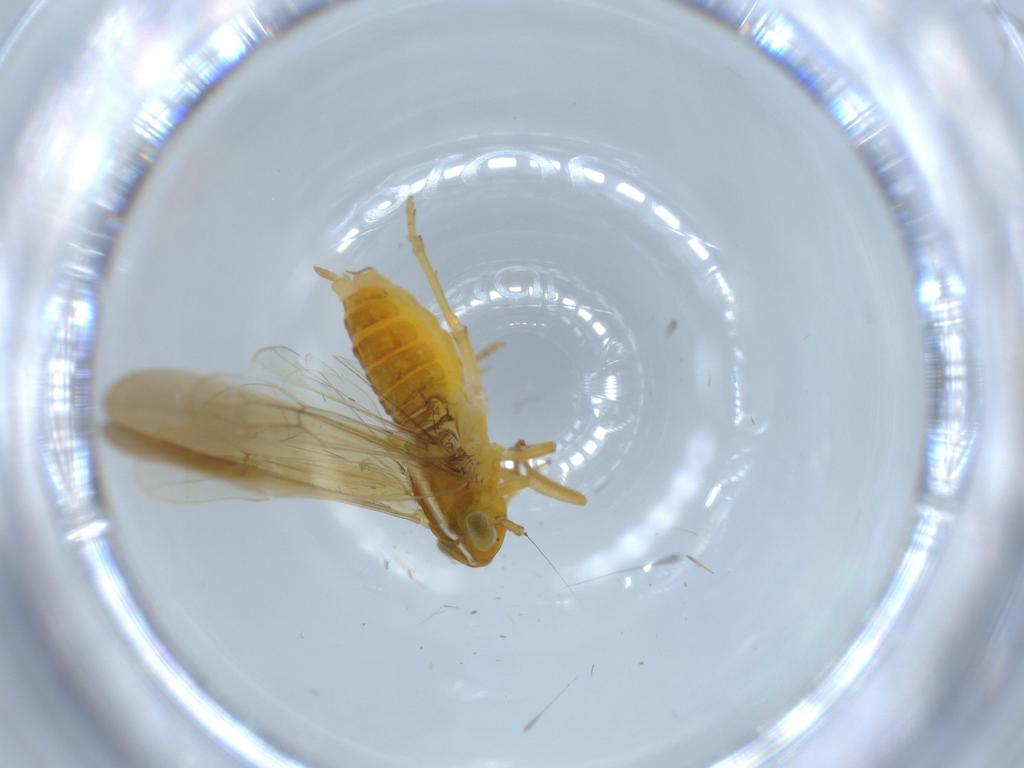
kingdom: Animalia
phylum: Arthropoda
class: Insecta
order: Hemiptera
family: Delphacidae
